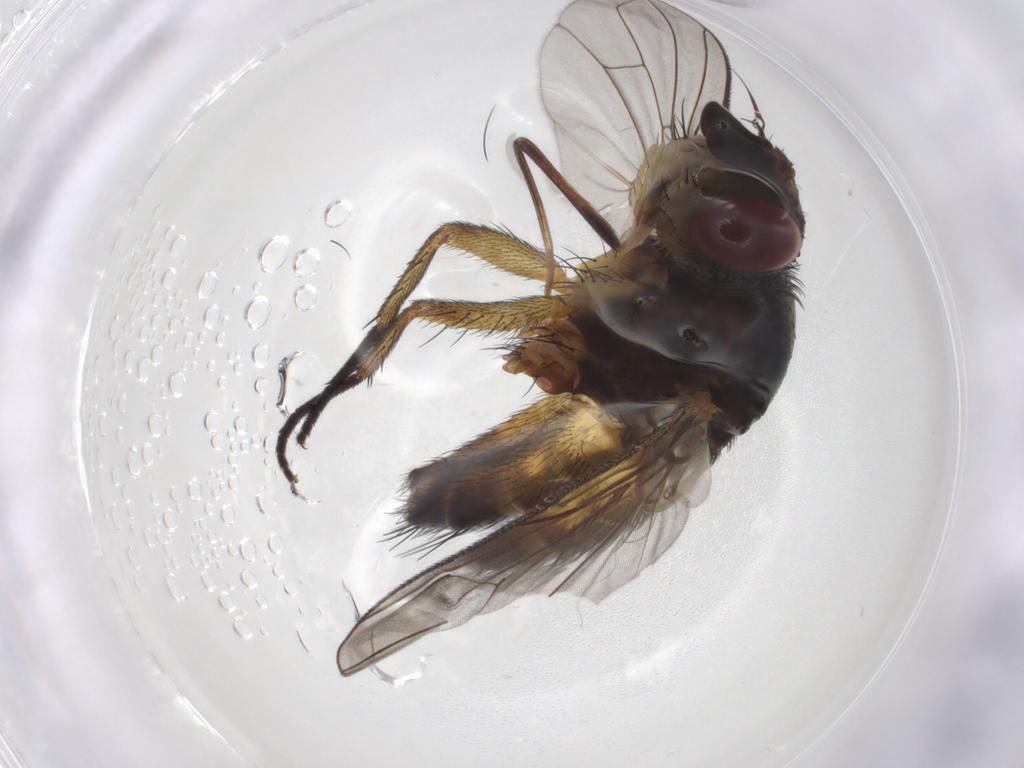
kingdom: Animalia
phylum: Arthropoda
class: Insecta
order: Diptera
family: Tachinidae
